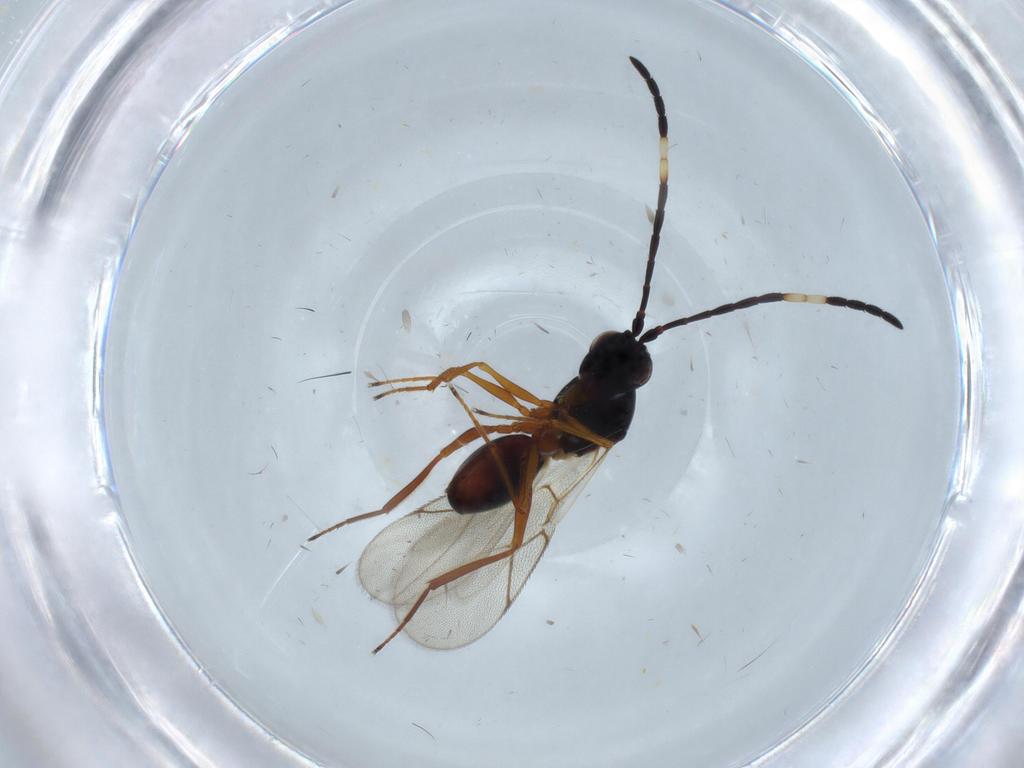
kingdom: Animalia
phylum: Arthropoda
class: Insecta
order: Hymenoptera
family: Figitidae
